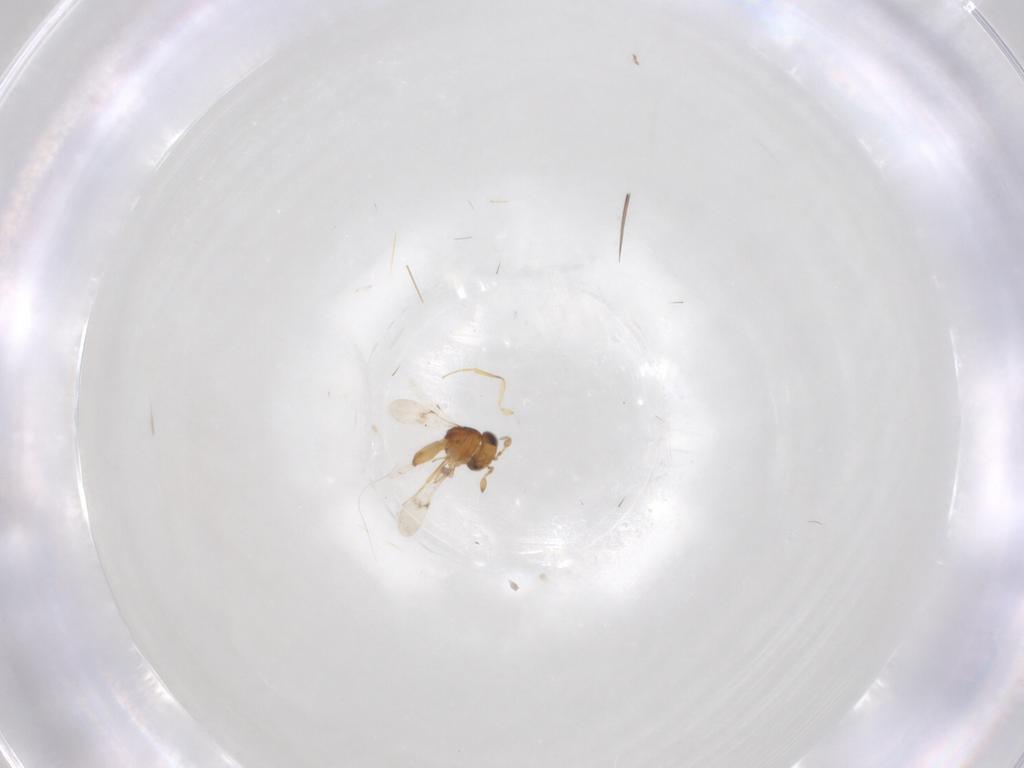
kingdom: Animalia
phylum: Arthropoda
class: Insecta
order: Hymenoptera
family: Scelionidae
